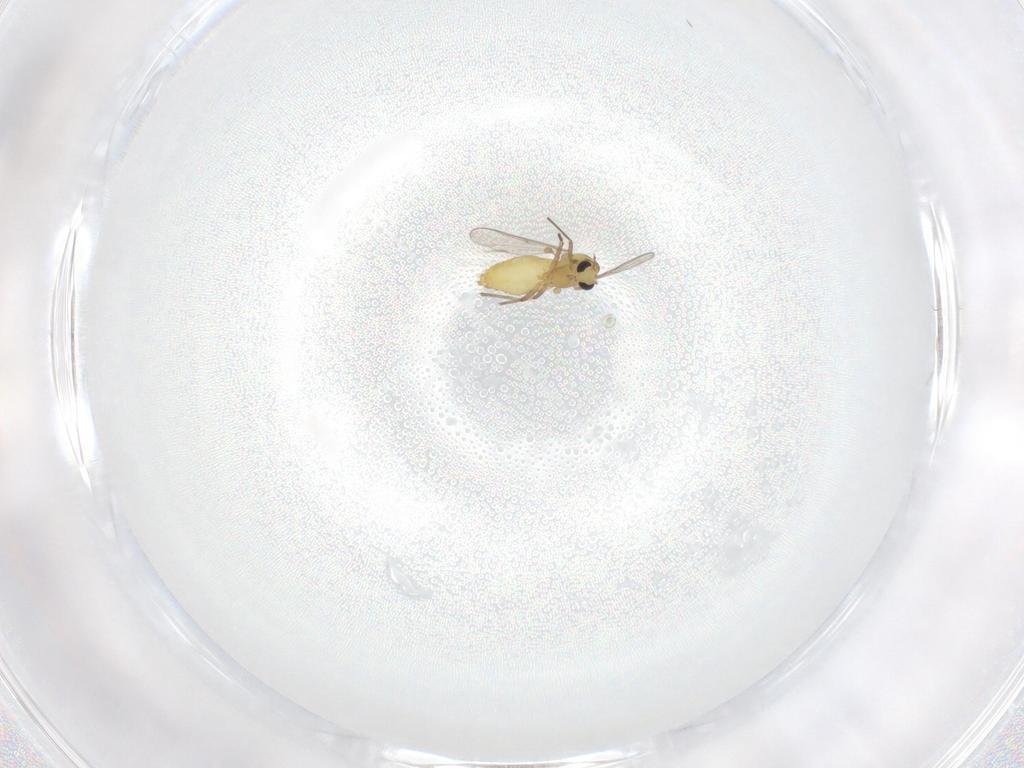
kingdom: Animalia
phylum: Arthropoda
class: Insecta
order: Diptera
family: Chironomidae
